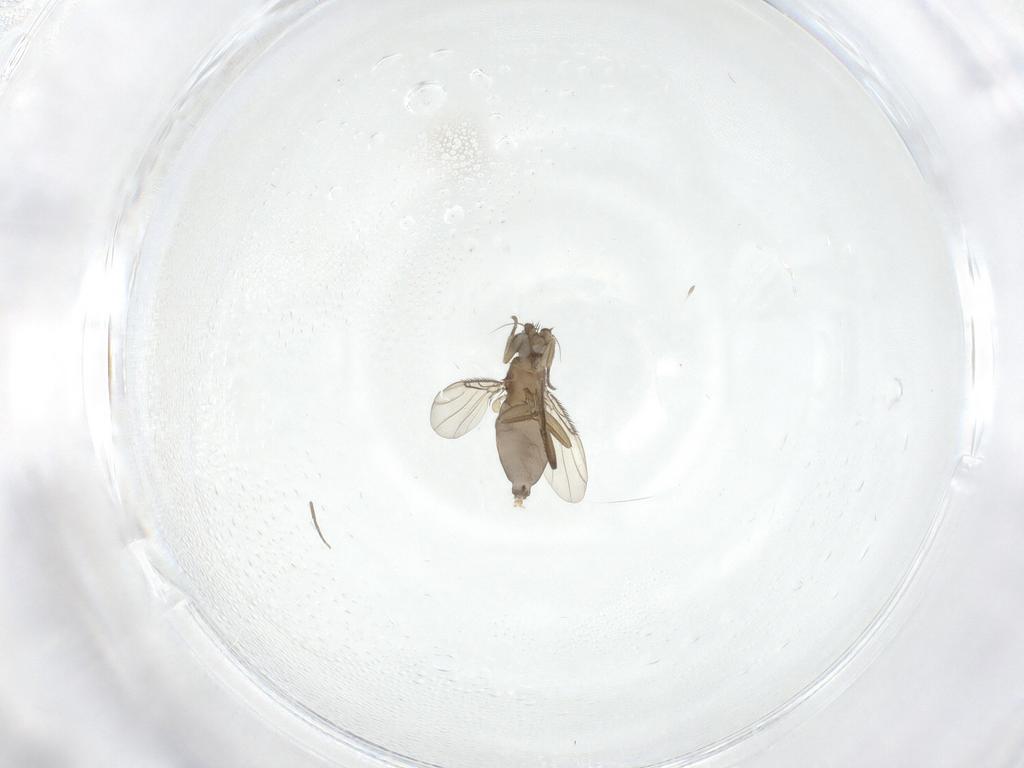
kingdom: Animalia
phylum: Arthropoda
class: Insecta
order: Diptera
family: Phoridae
